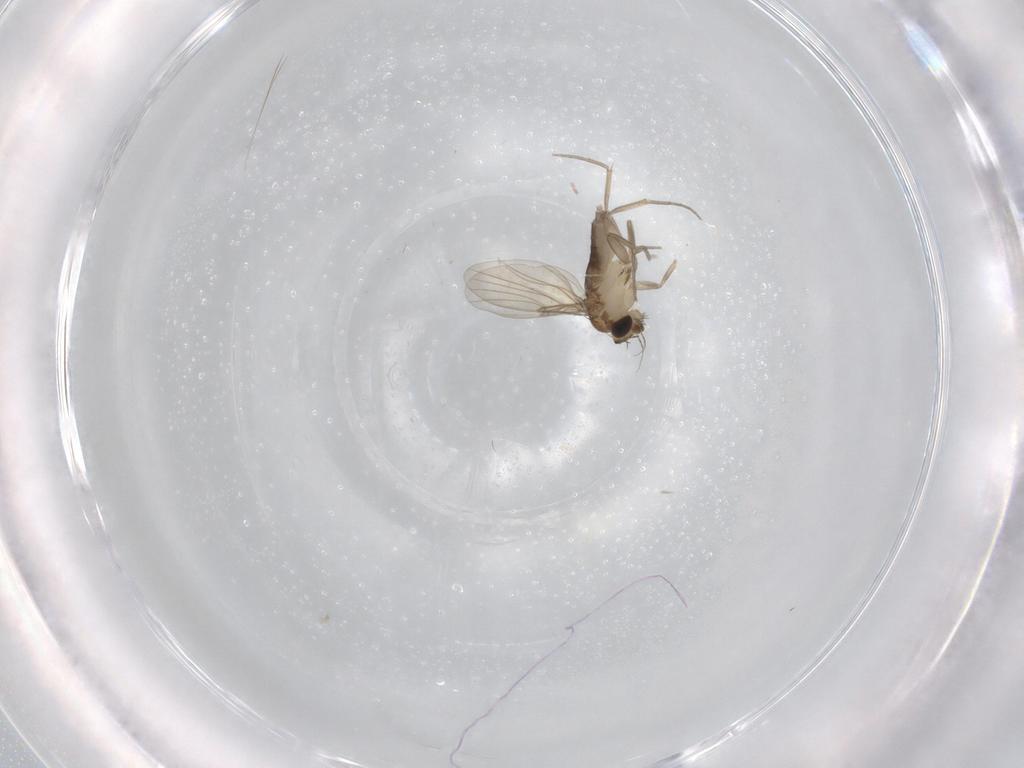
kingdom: Animalia
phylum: Arthropoda
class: Insecta
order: Diptera
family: Phoridae
